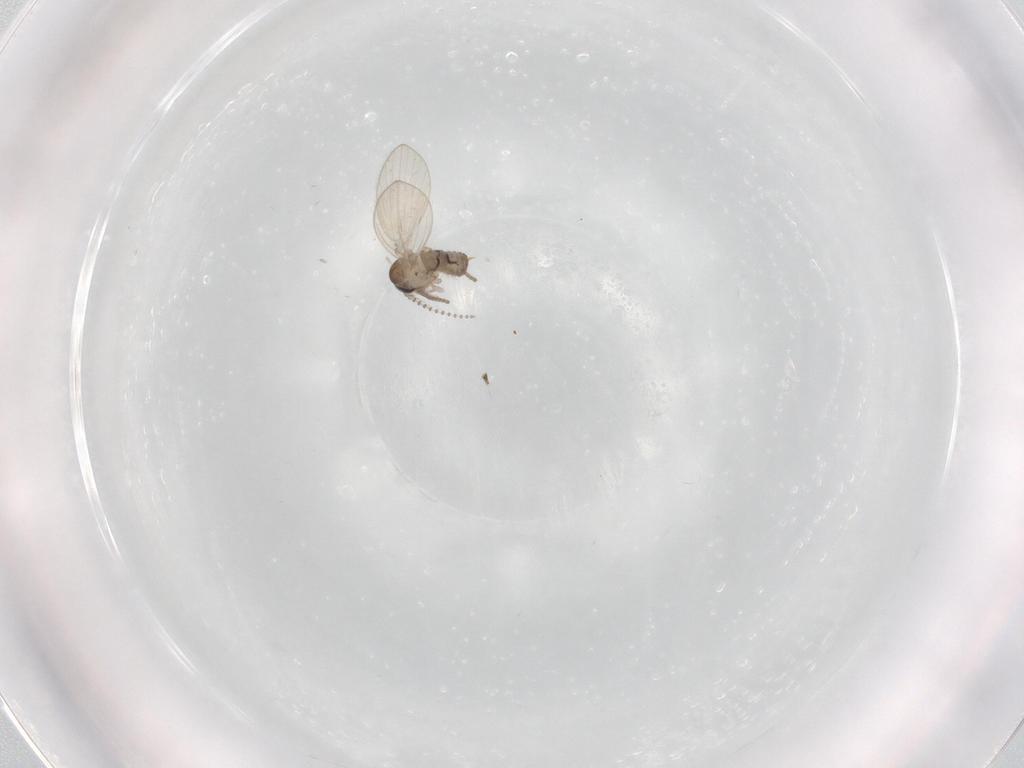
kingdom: Animalia
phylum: Arthropoda
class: Insecta
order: Diptera
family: Psychodidae
